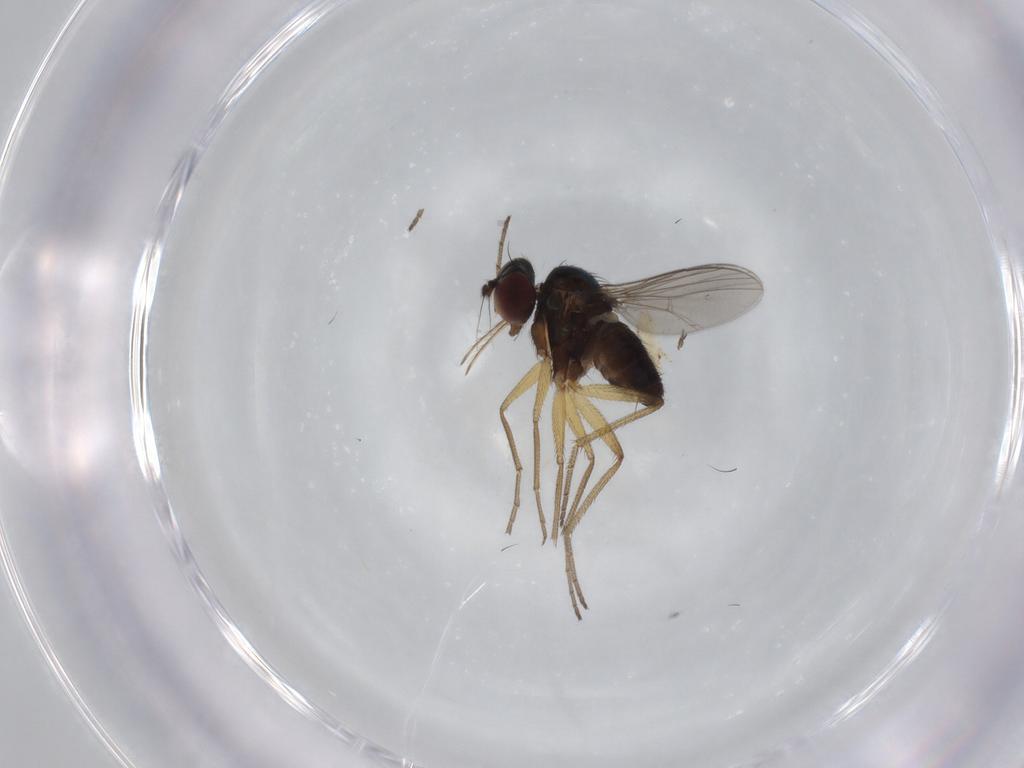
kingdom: Animalia
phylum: Arthropoda
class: Insecta
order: Diptera
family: Dolichopodidae
